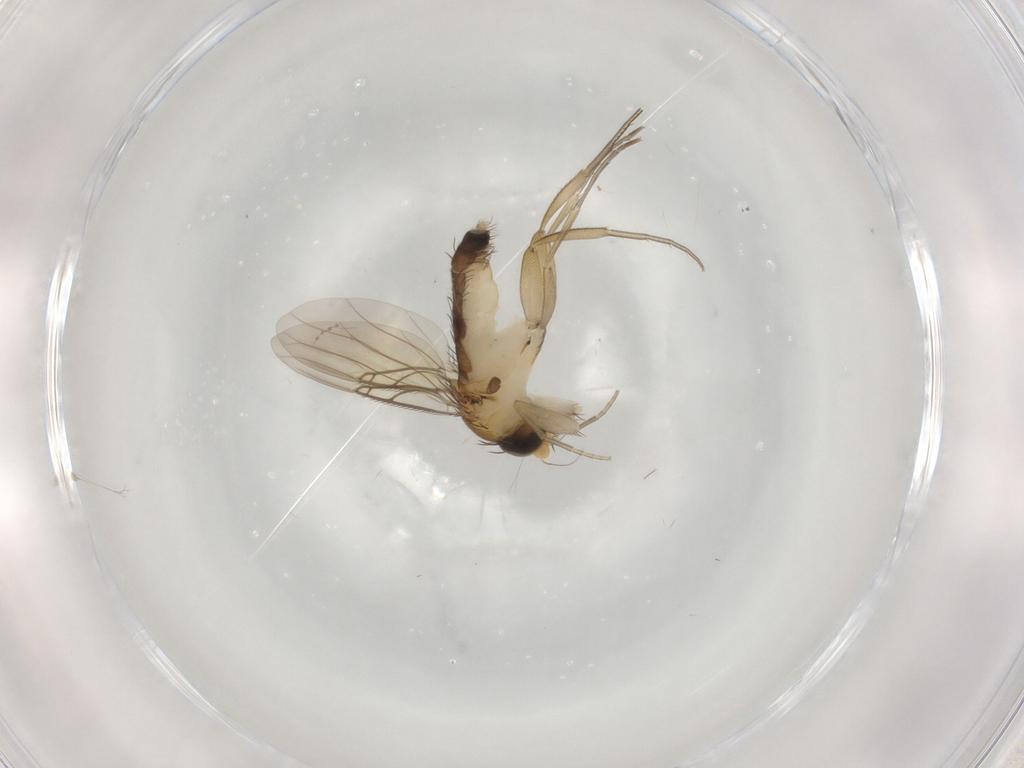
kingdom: Animalia
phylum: Arthropoda
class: Insecta
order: Diptera
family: Phoridae
